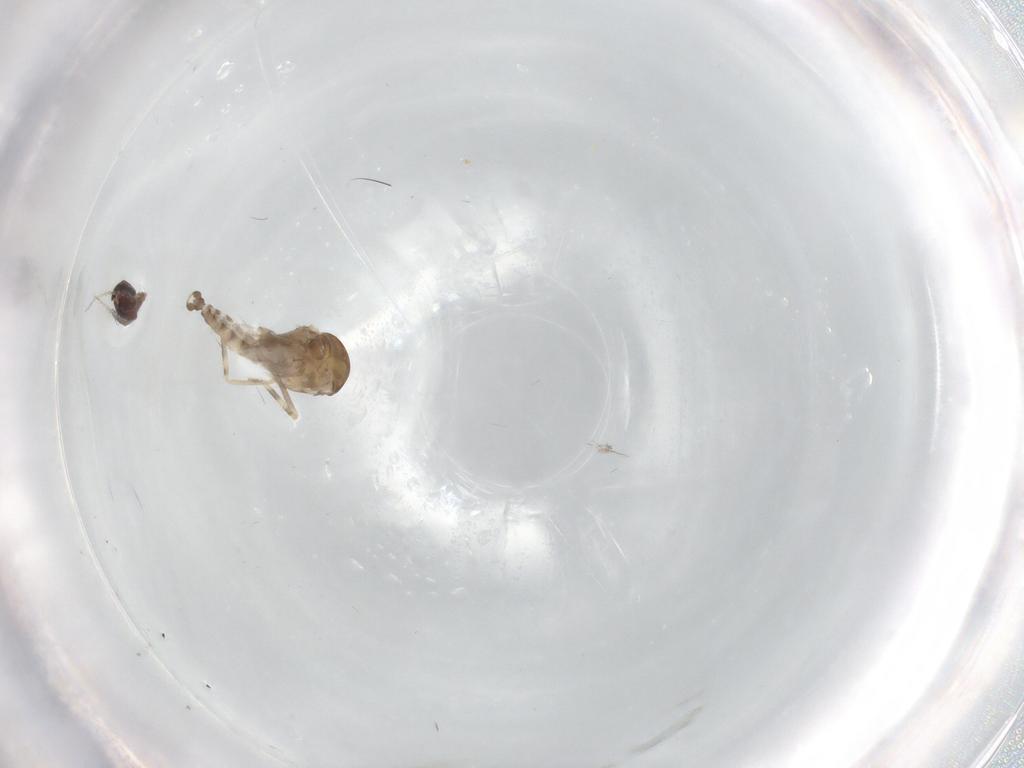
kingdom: Animalia
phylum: Arthropoda
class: Insecta
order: Diptera
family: Ceratopogonidae
